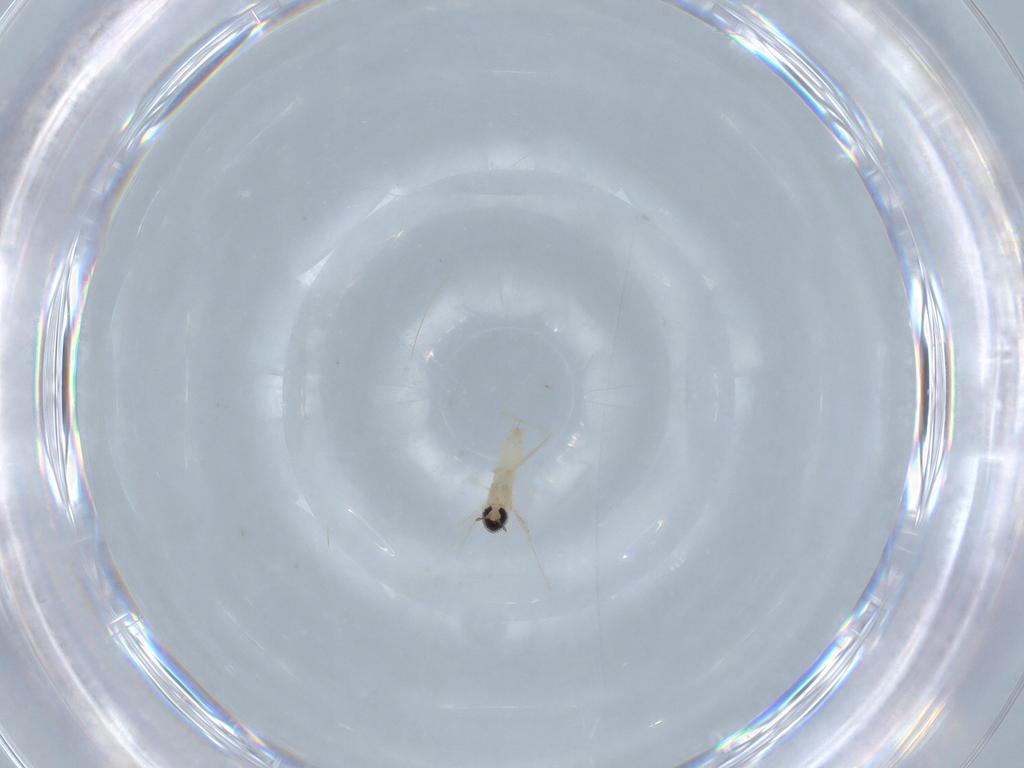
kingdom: Animalia
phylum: Arthropoda
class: Insecta
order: Diptera
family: Cecidomyiidae
